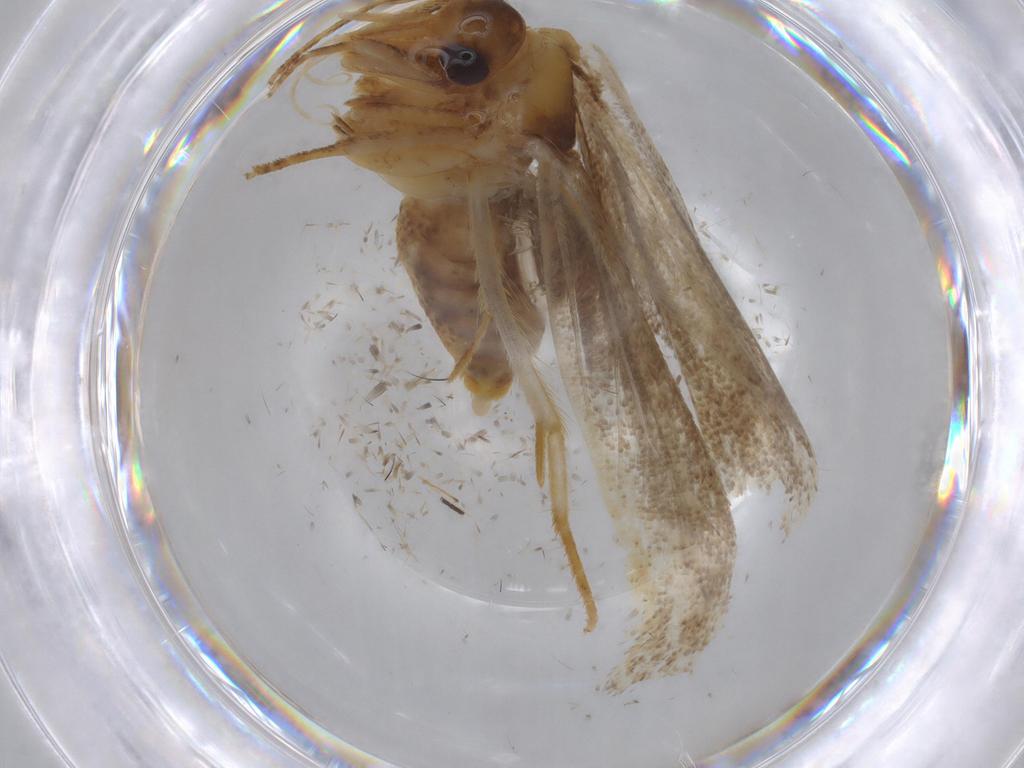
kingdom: Animalia
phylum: Arthropoda
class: Insecta
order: Lepidoptera
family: Lecithoceridae
